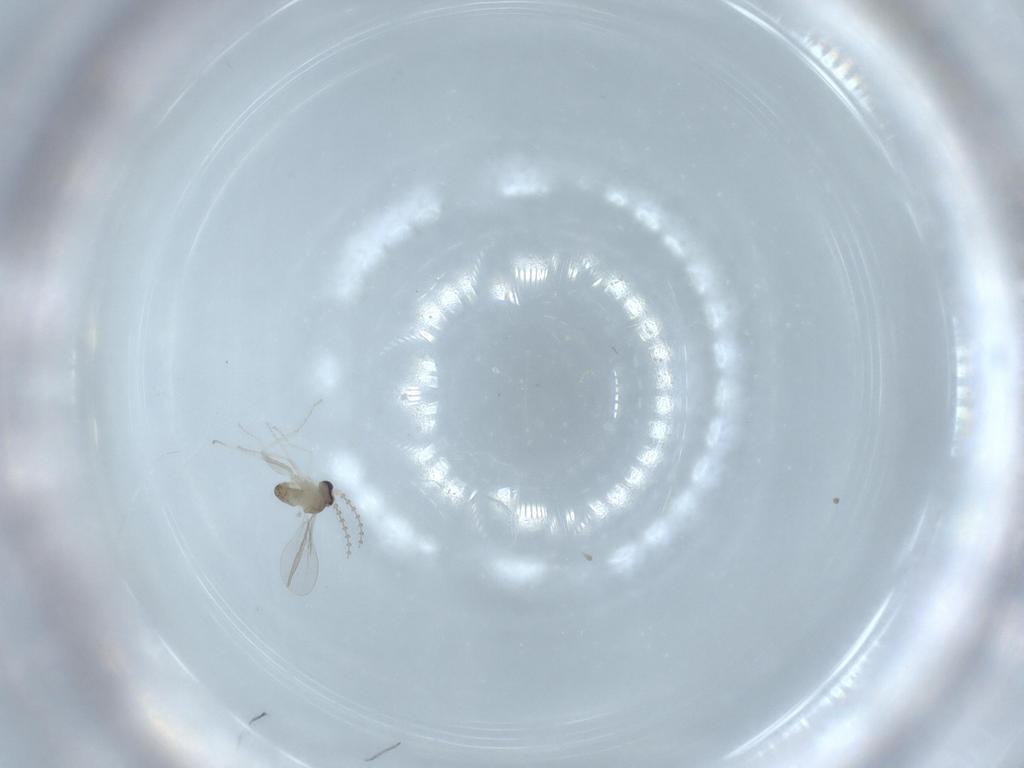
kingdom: Animalia
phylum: Arthropoda
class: Insecta
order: Diptera
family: Cecidomyiidae
